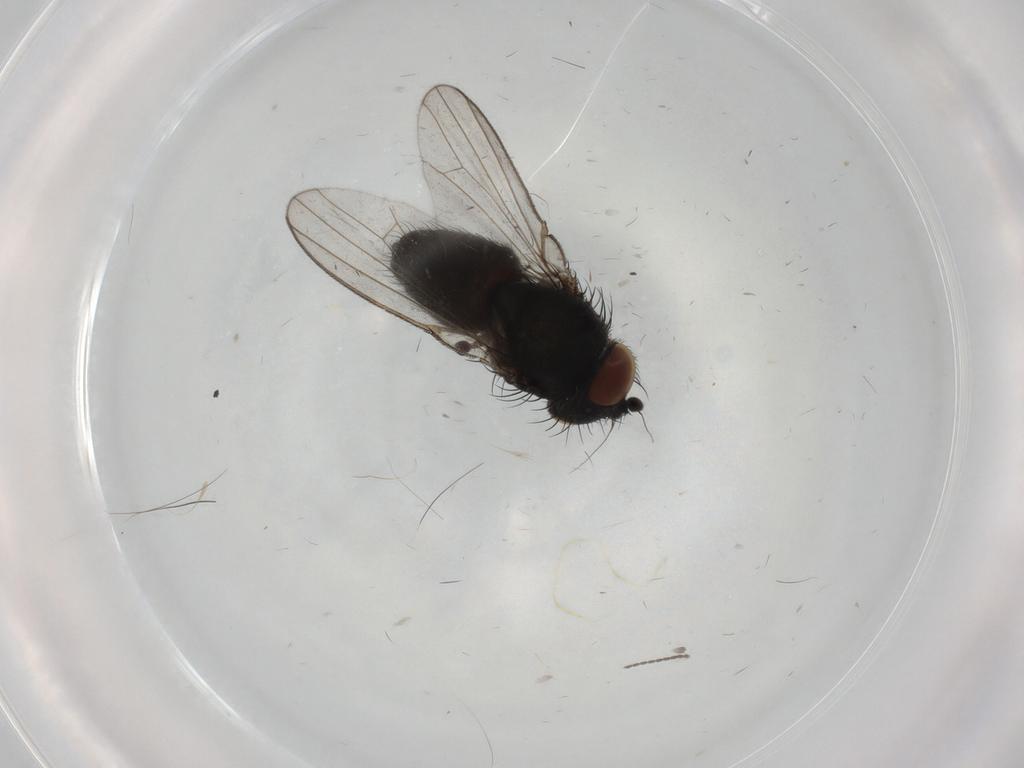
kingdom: Animalia
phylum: Arthropoda
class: Insecta
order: Diptera
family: Milichiidae
